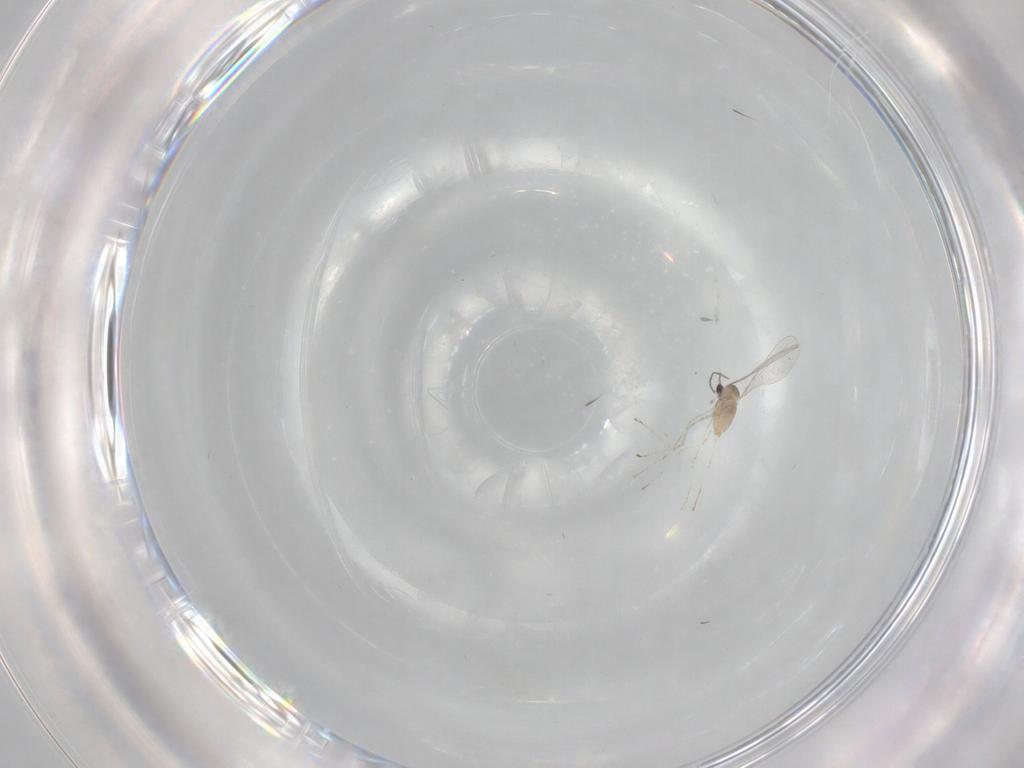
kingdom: Animalia
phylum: Arthropoda
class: Insecta
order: Diptera
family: Cecidomyiidae
